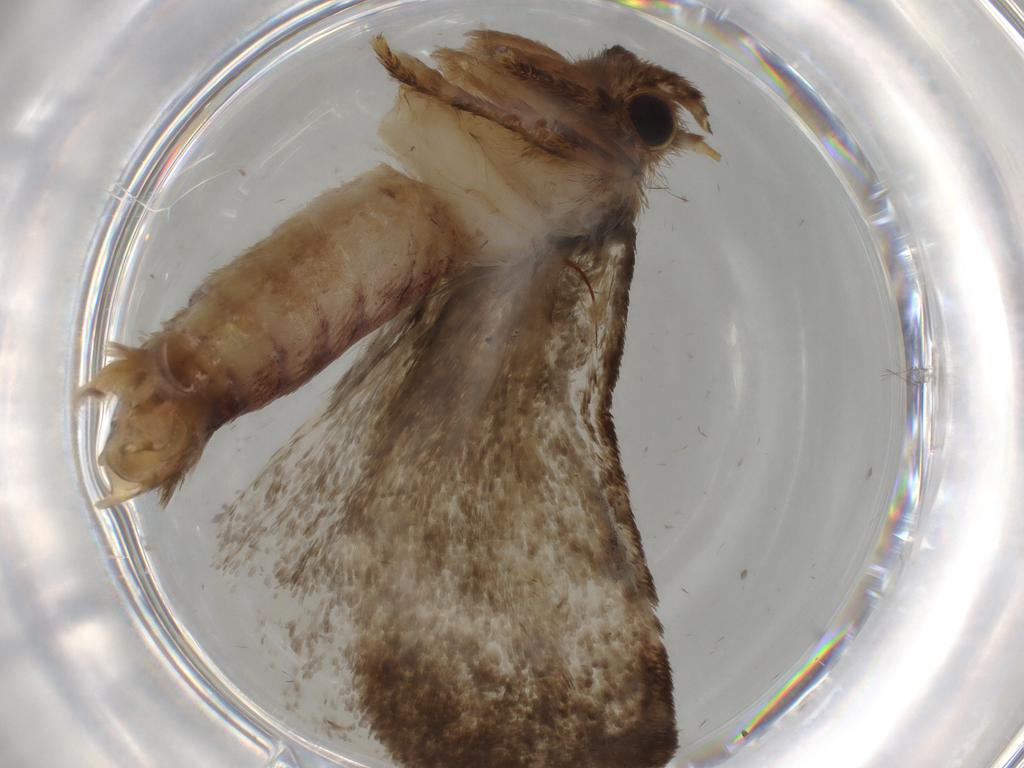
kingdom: Animalia
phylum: Arthropoda
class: Insecta
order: Lepidoptera
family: Tineidae
